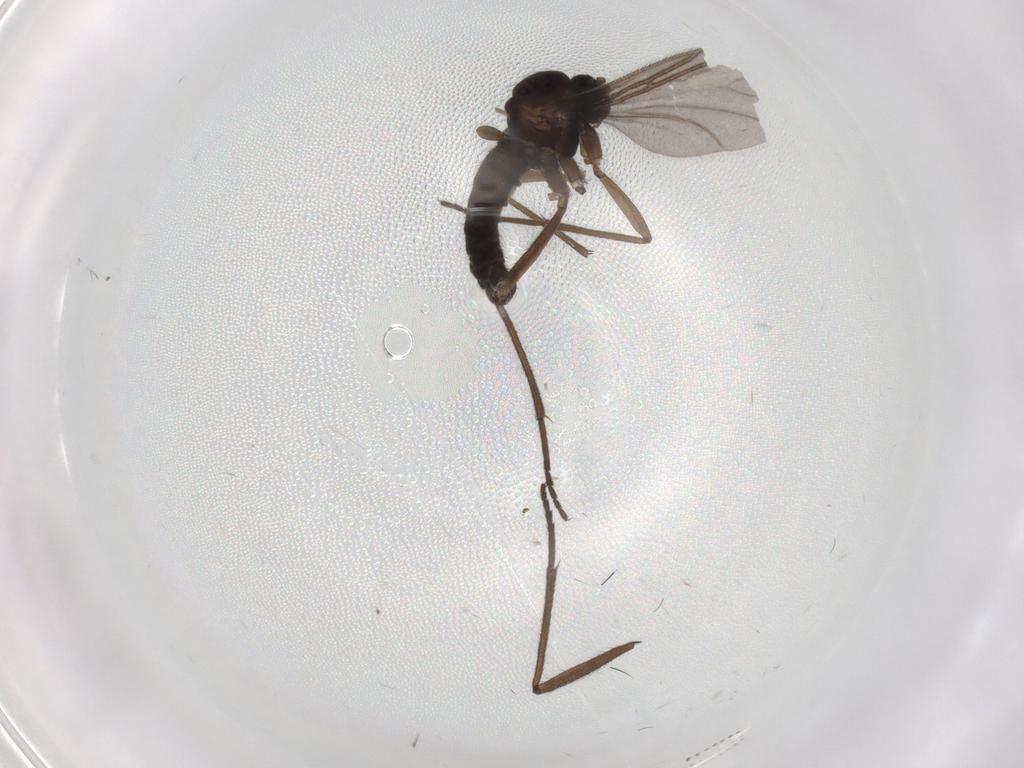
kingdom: Animalia
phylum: Arthropoda
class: Insecta
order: Diptera
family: Sciaridae
